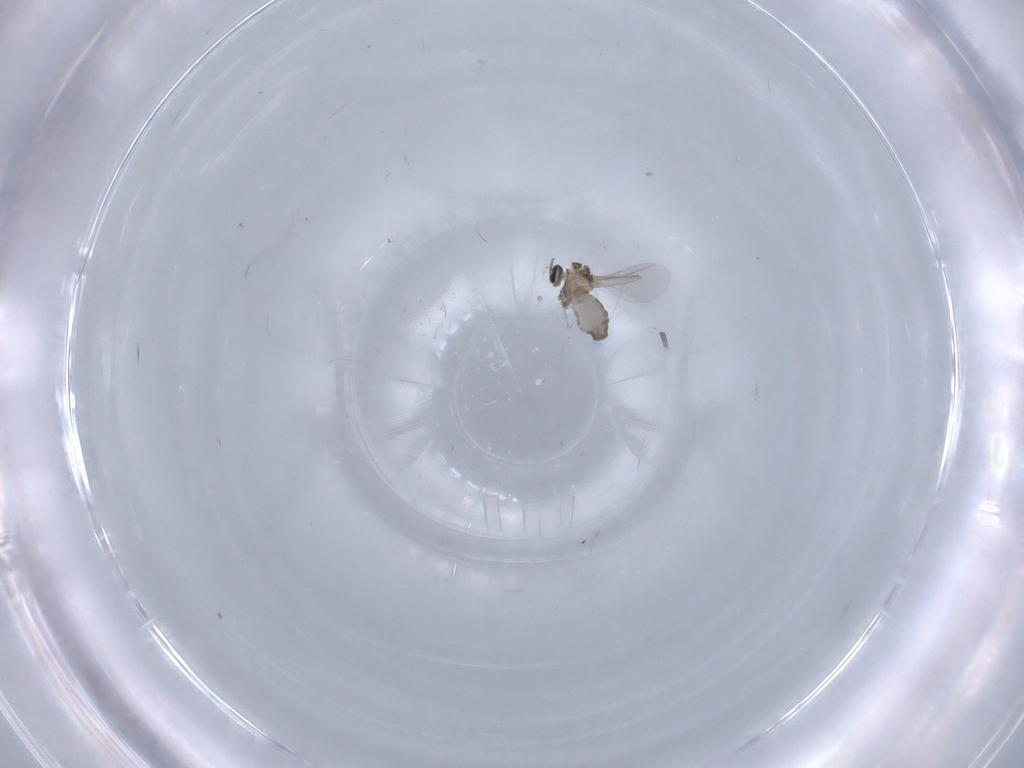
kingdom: Animalia
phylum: Arthropoda
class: Insecta
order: Diptera
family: Cecidomyiidae
